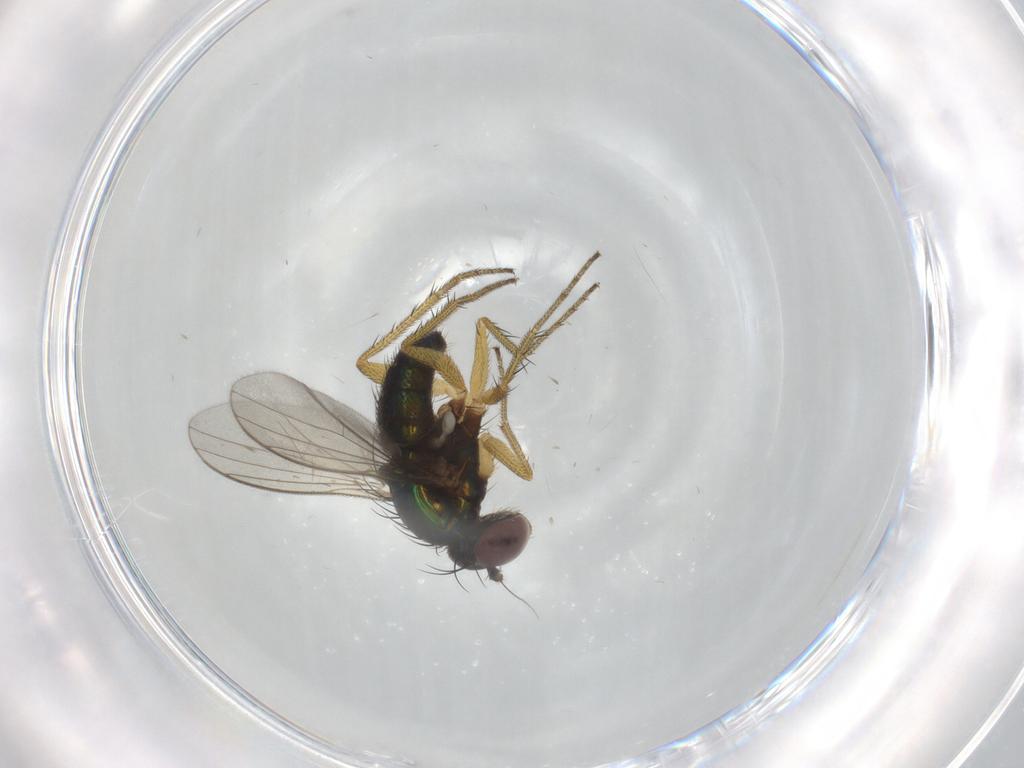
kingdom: Animalia
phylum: Arthropoda
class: Insecta
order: Diptera
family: Dolichopodidae
